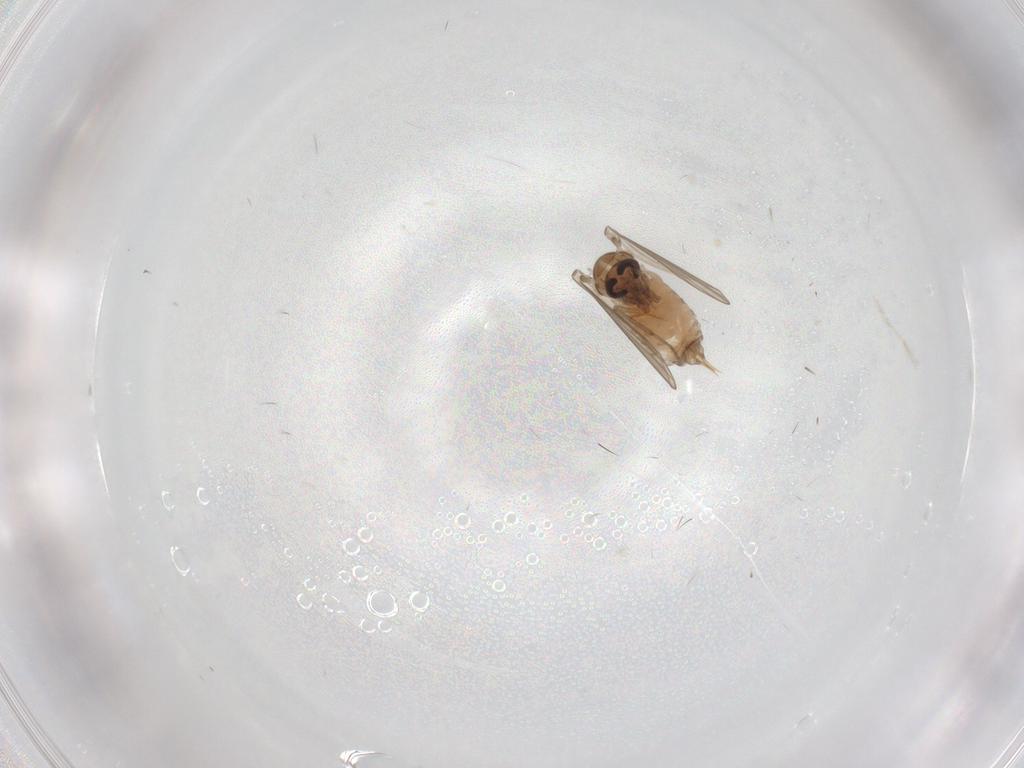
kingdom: Animalia
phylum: Arthropoda
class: Insecta
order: Diptera
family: Psychodidae
